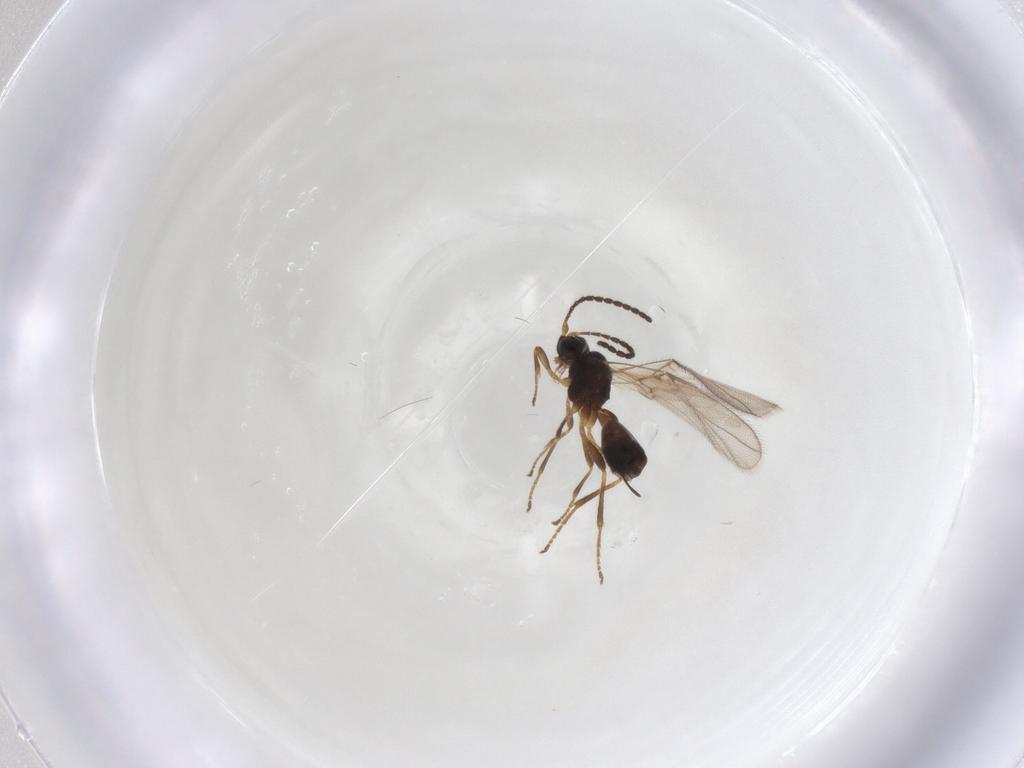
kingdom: Animalia
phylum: Arthropoda
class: Insecta
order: Hymenoptera
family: Braconidae
